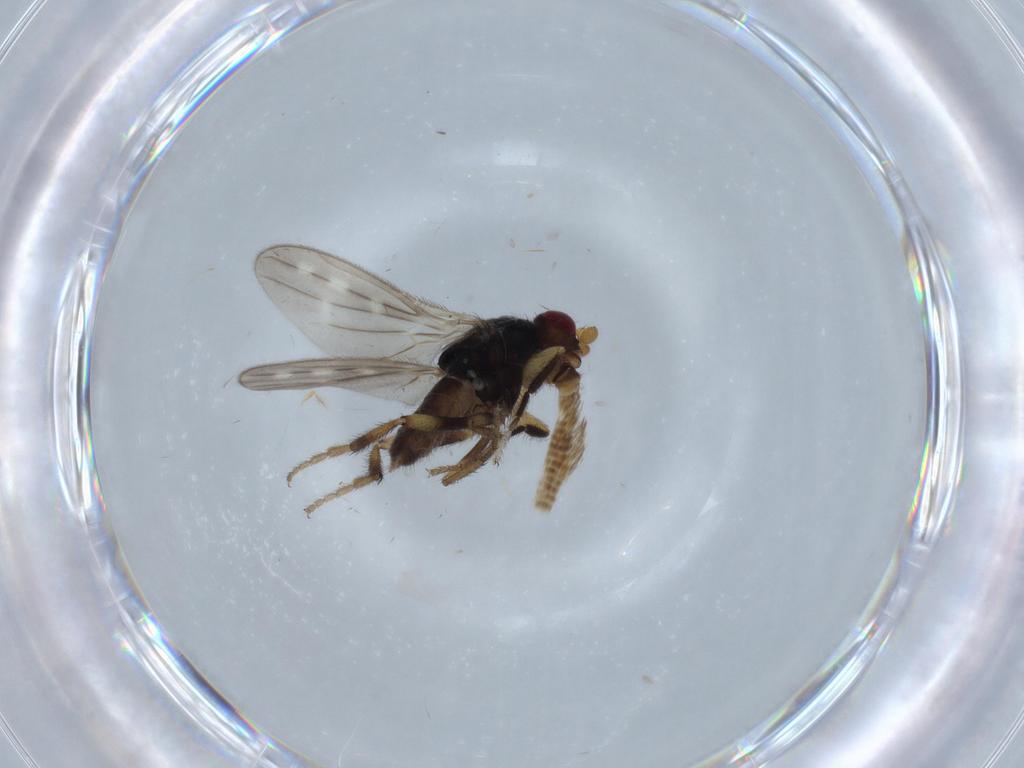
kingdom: Animalia
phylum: Arthropoda
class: Insecta
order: Diptera
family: Sphaeroceridae
